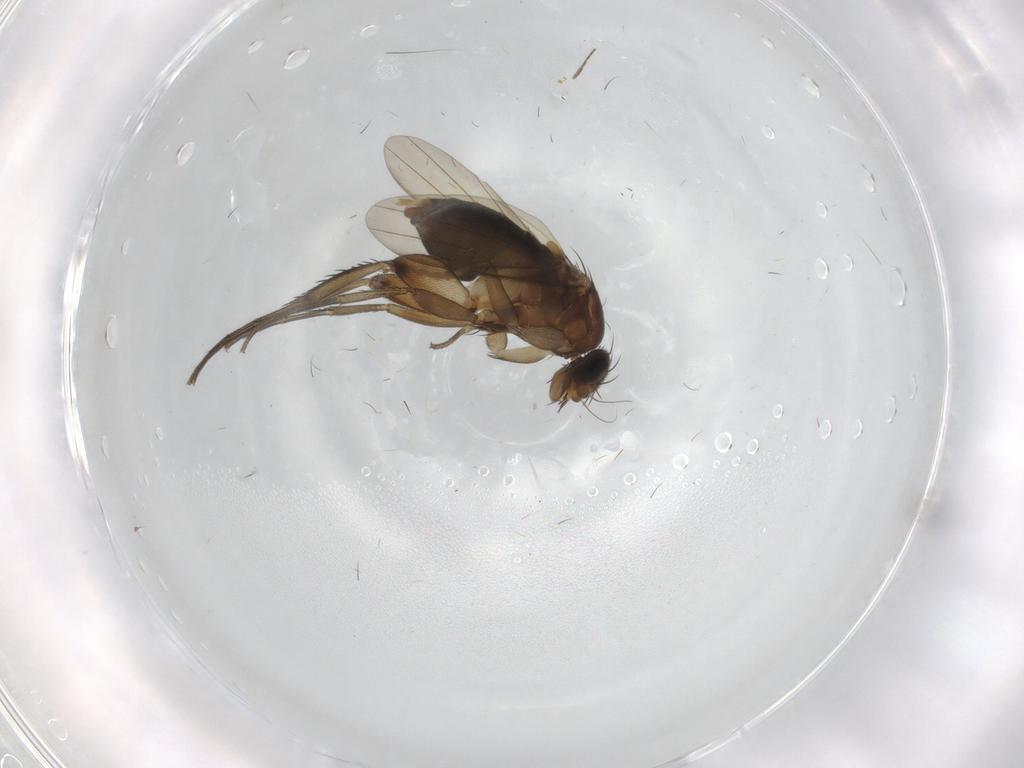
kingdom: Animalia
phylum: Arthropoda
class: Insecta
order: Diptera
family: Phoridae
